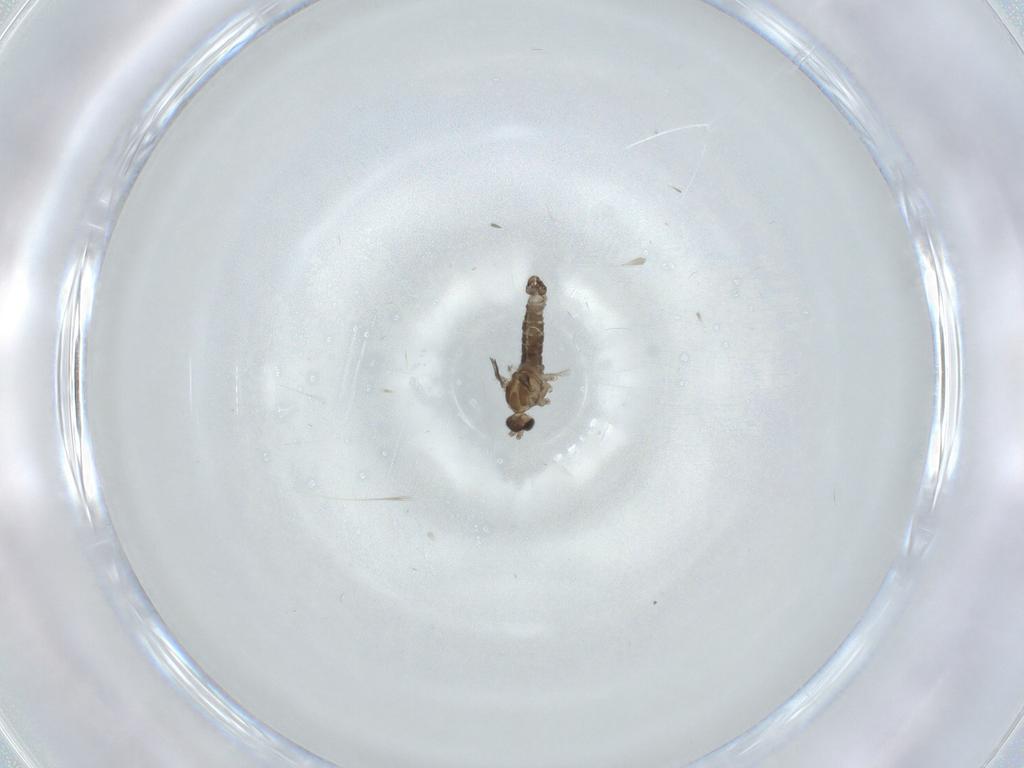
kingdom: Animalia
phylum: Arthropoda
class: Insecta
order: Diptera
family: Cecidomyiidae
